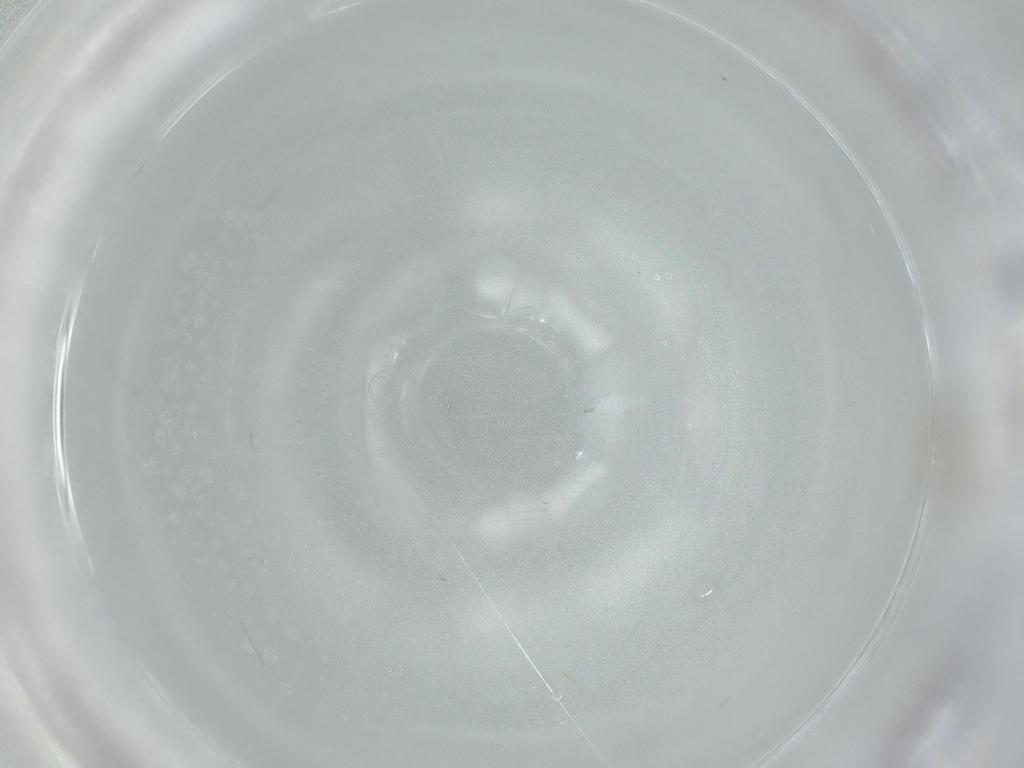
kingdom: Animalia
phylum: Arthropoda
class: Insecta
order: Diptera
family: Cecidomyiidae
